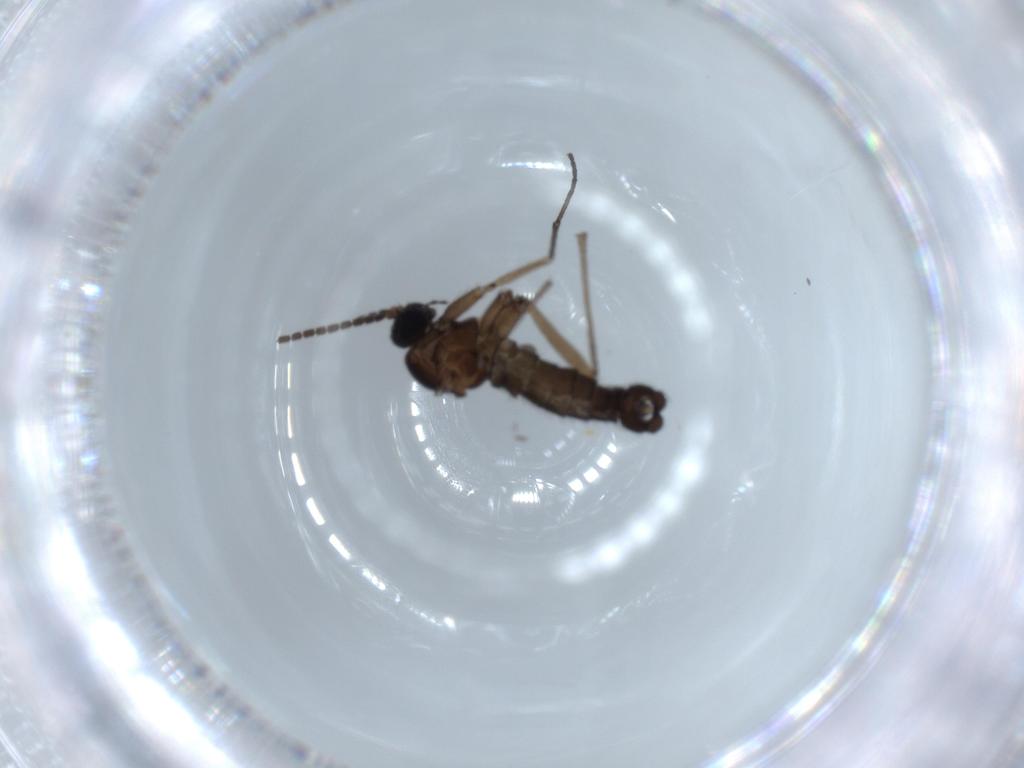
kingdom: Animalia
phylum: Arthropoda
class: Insecta
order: Diptera
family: Sciaridae
